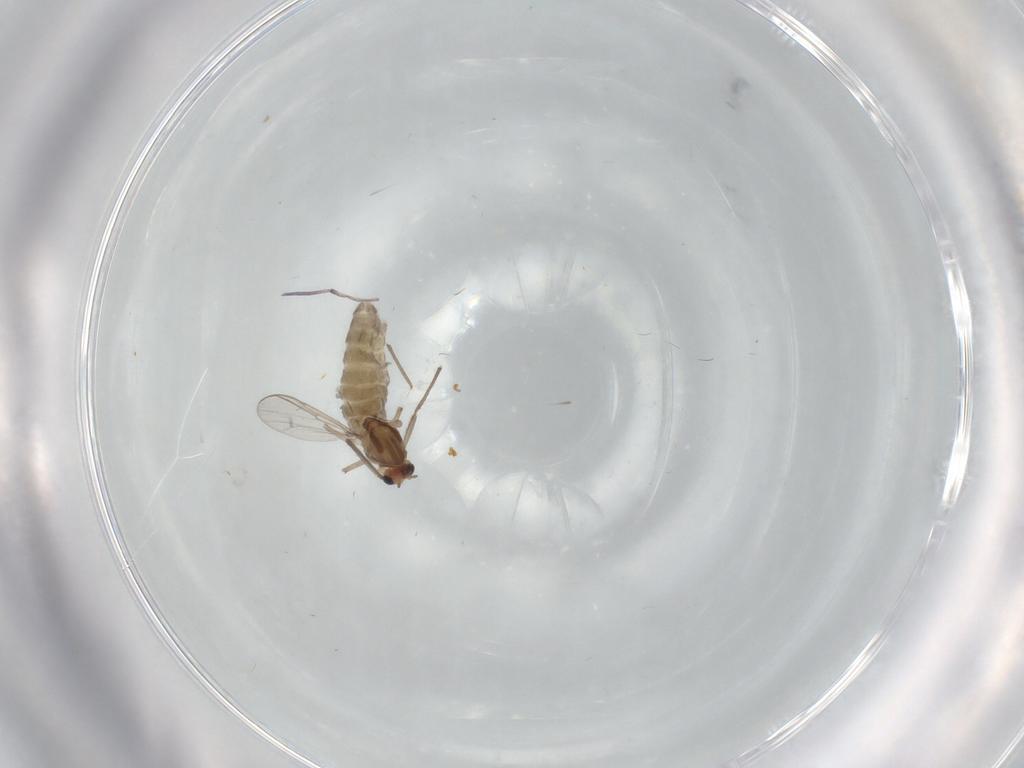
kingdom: Animalia
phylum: Arthropoda
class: Insecta
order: Diptera
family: Chironomidae
